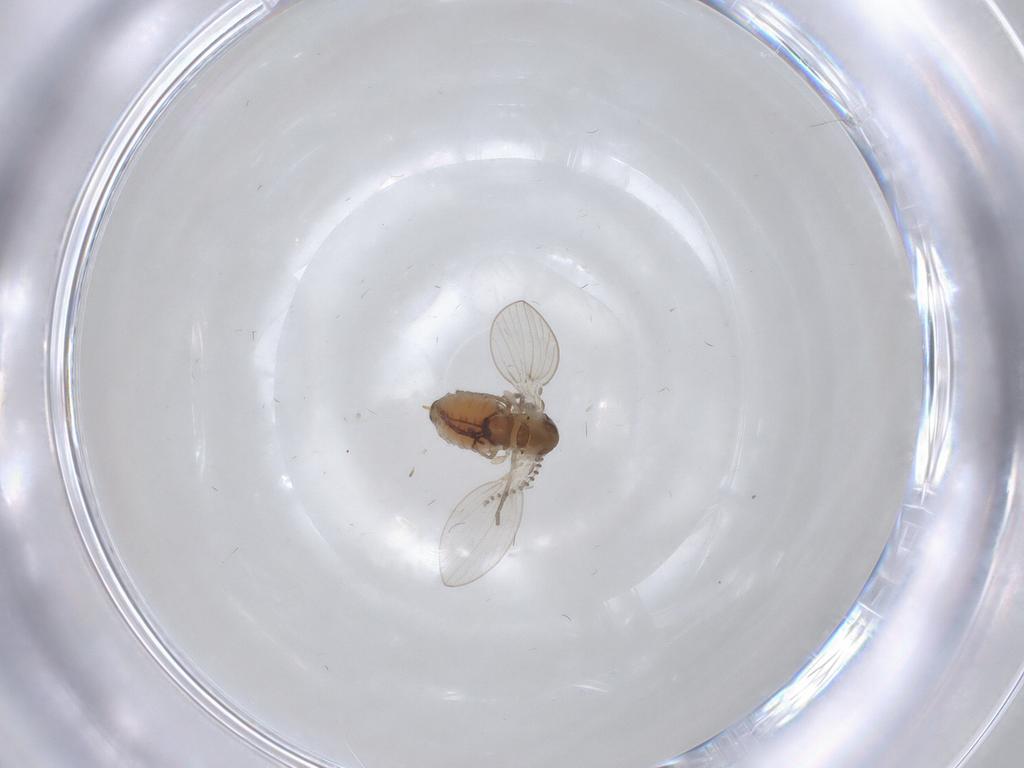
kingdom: Animalia
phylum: Arthropoda
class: Insecta
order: Diptera
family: Psychodidae
